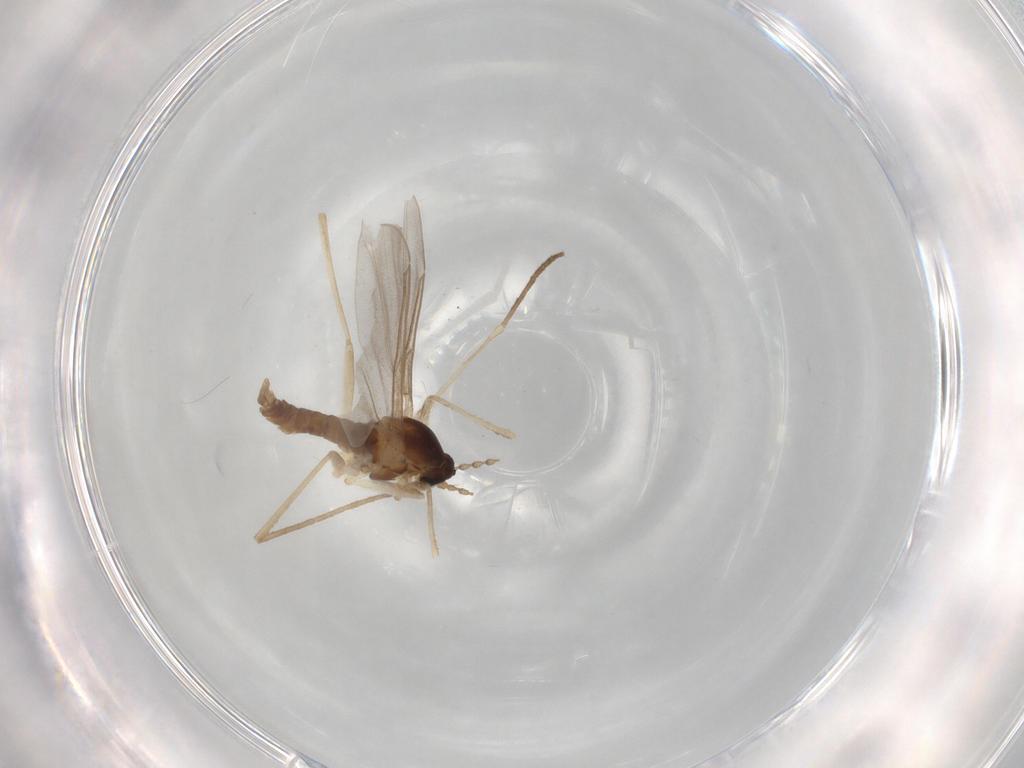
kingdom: Animalia
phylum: Arthropoda
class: Insecta
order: Diptera
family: Cecidomyiidae
